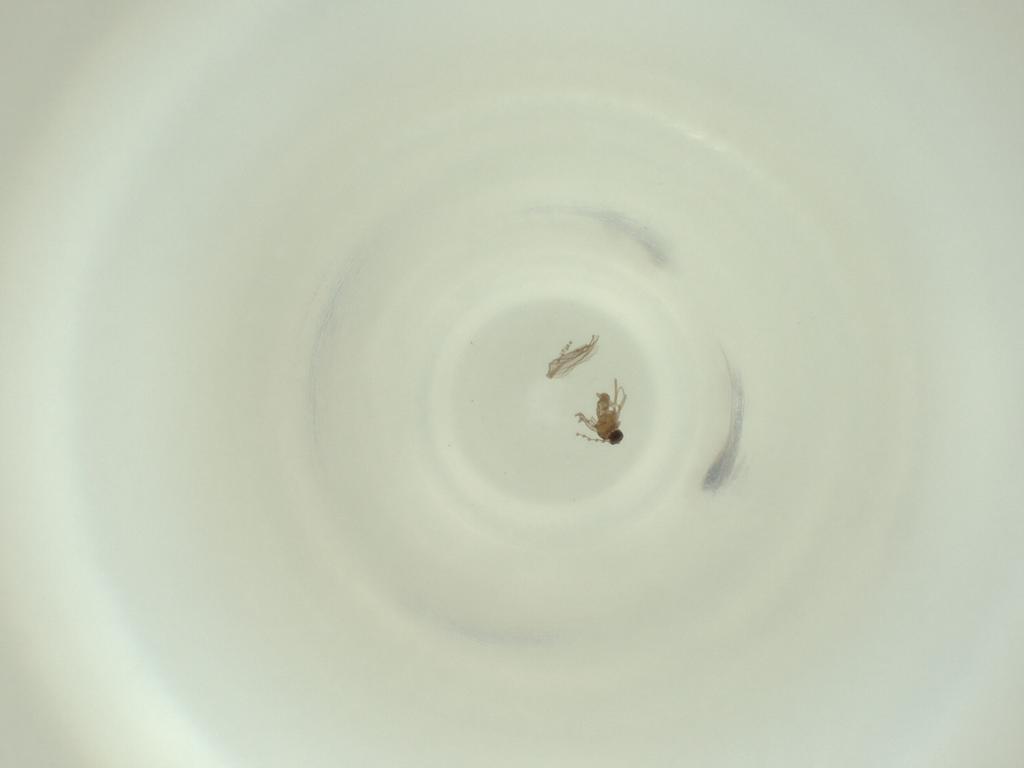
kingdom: Animalia
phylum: Arthropoda
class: Insecta
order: Diptera
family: Cecidomyiidae
